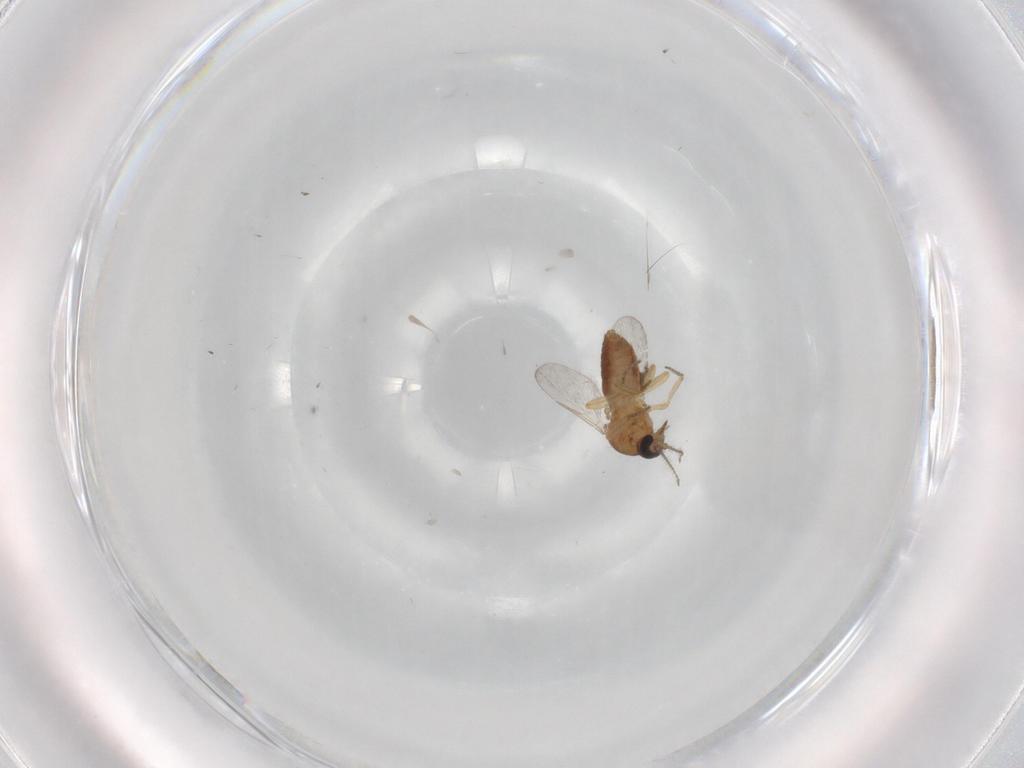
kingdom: Animalia
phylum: Arthropoda
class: Insecta
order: Diptera
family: Ceratopogonidae
